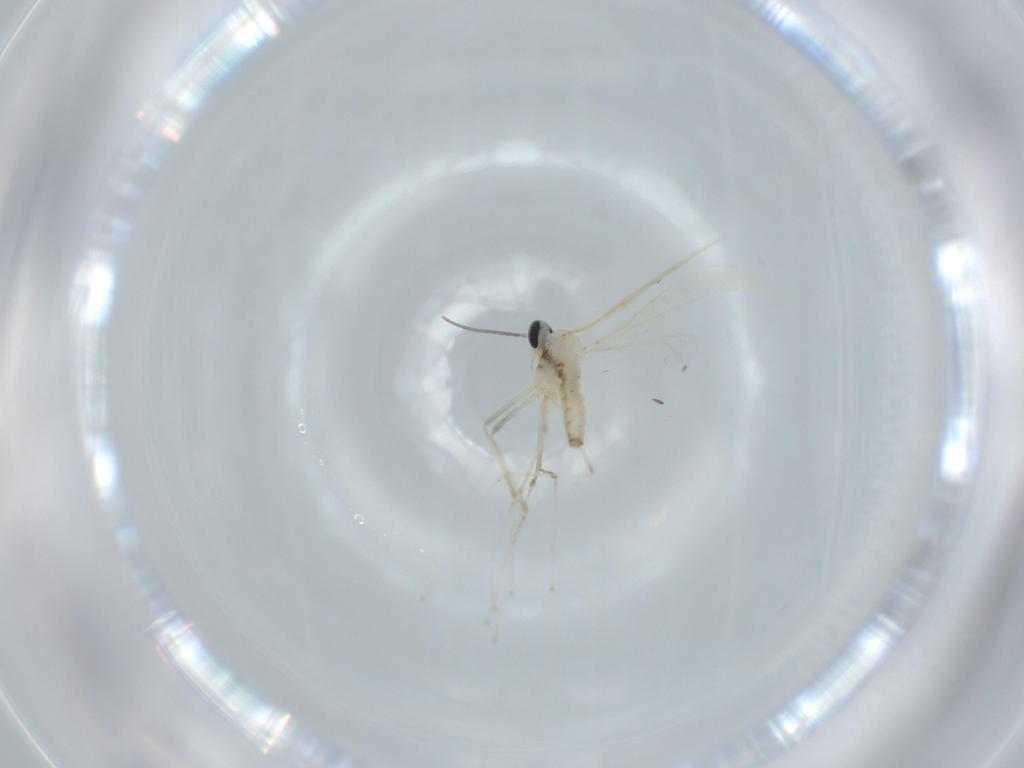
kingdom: Animalia
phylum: Arthropoda
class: Insecta
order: Diptera
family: Cecidomyiidae
